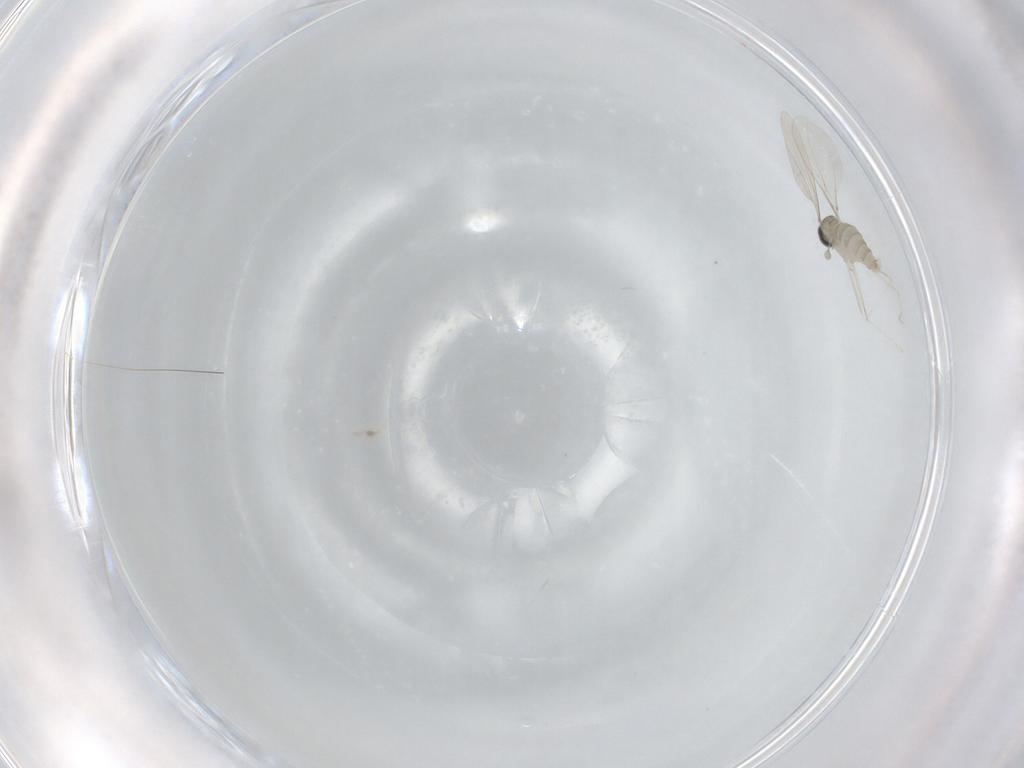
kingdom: Animalia
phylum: Arthropoda
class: Insecta
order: Diptera
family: Cecidomyiidae
